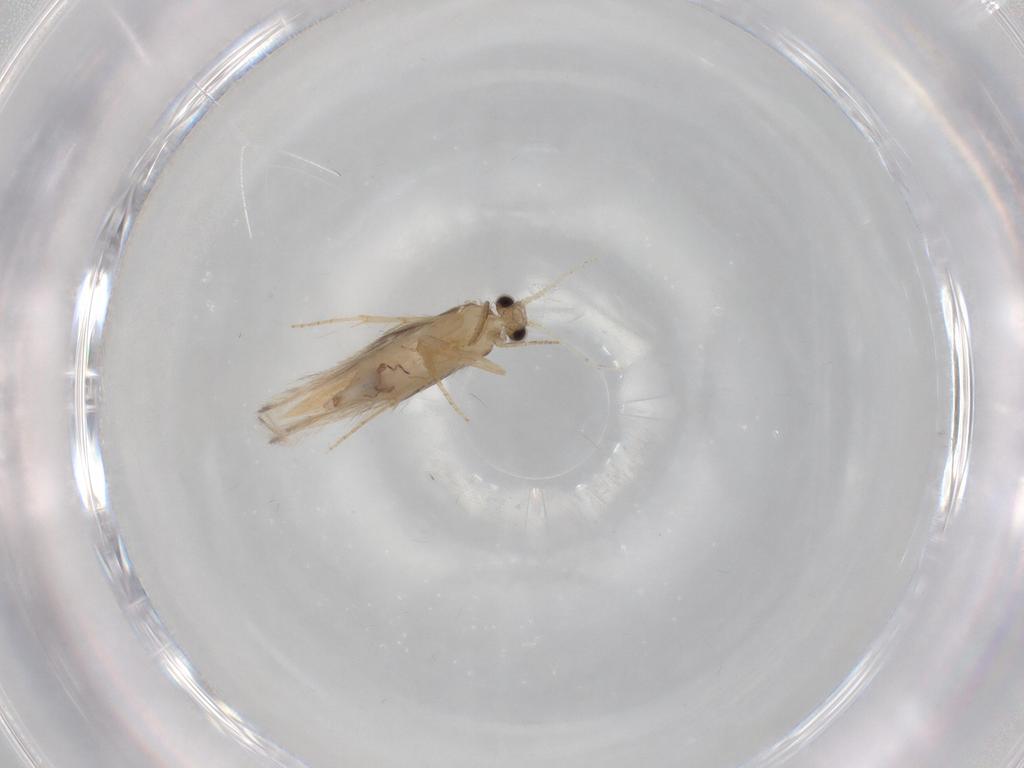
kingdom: Animalia
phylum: Arthropoda
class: Insecta
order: Trichoptera
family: Hydroptilidae
